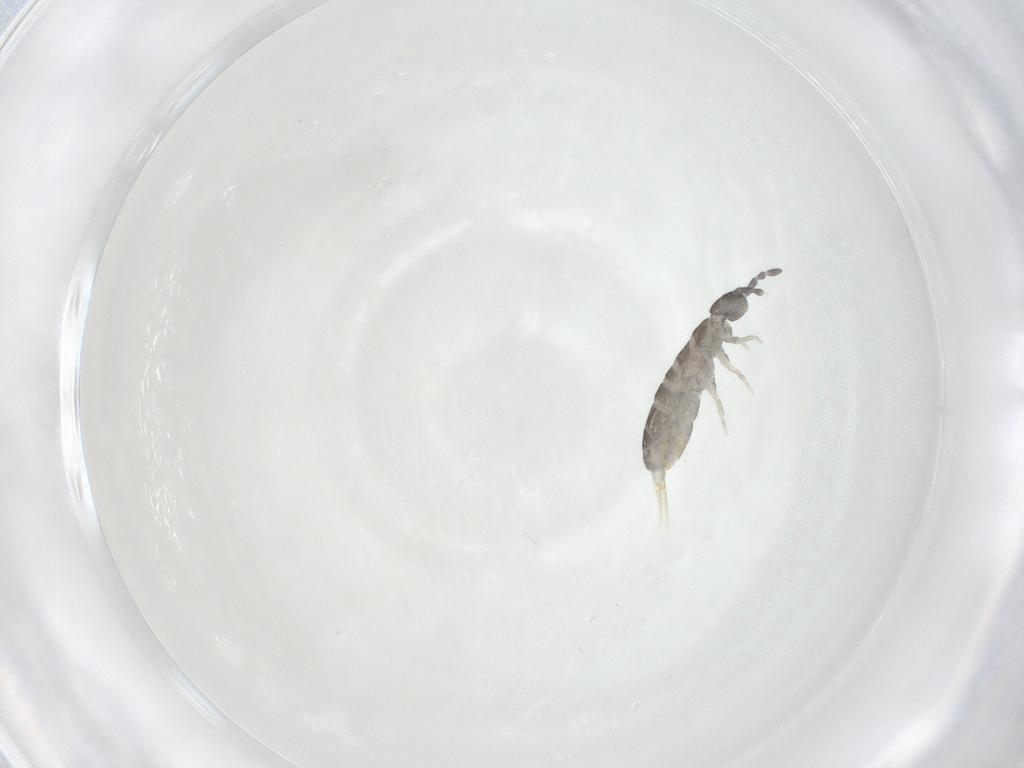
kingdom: Animalia
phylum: Arthropoda
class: Collembola
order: Entomobryomorpha
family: Isotomidae
